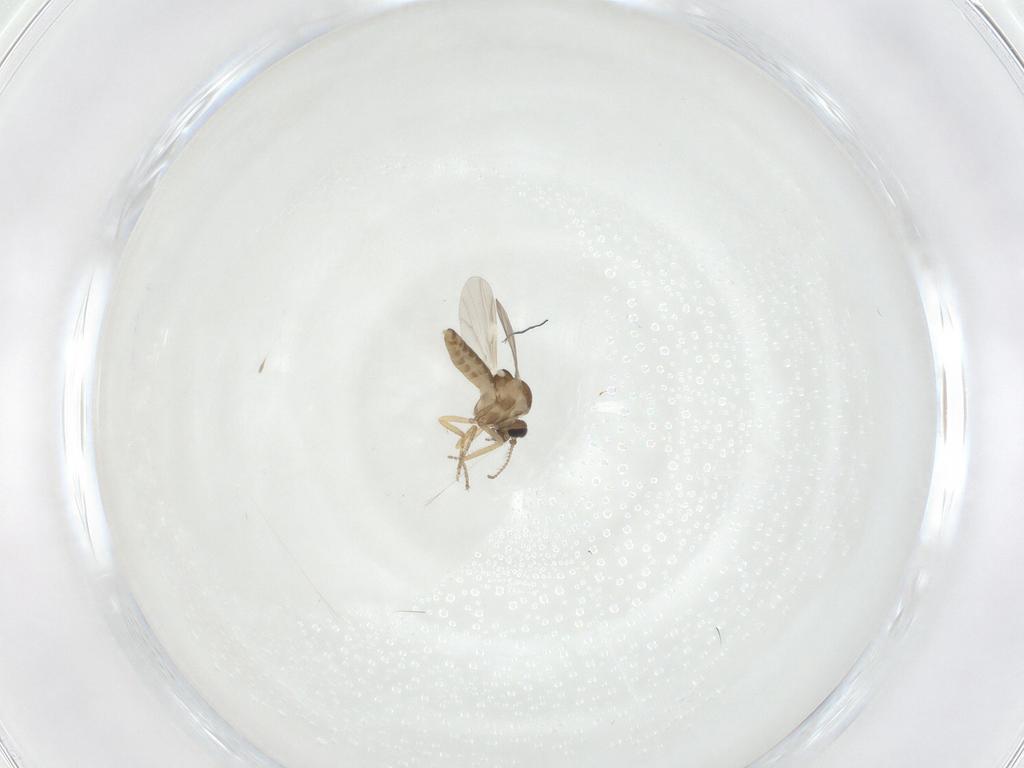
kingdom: Animalia
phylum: Arthropoda
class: Insecta
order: Diptera
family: Ceratopogonidae
